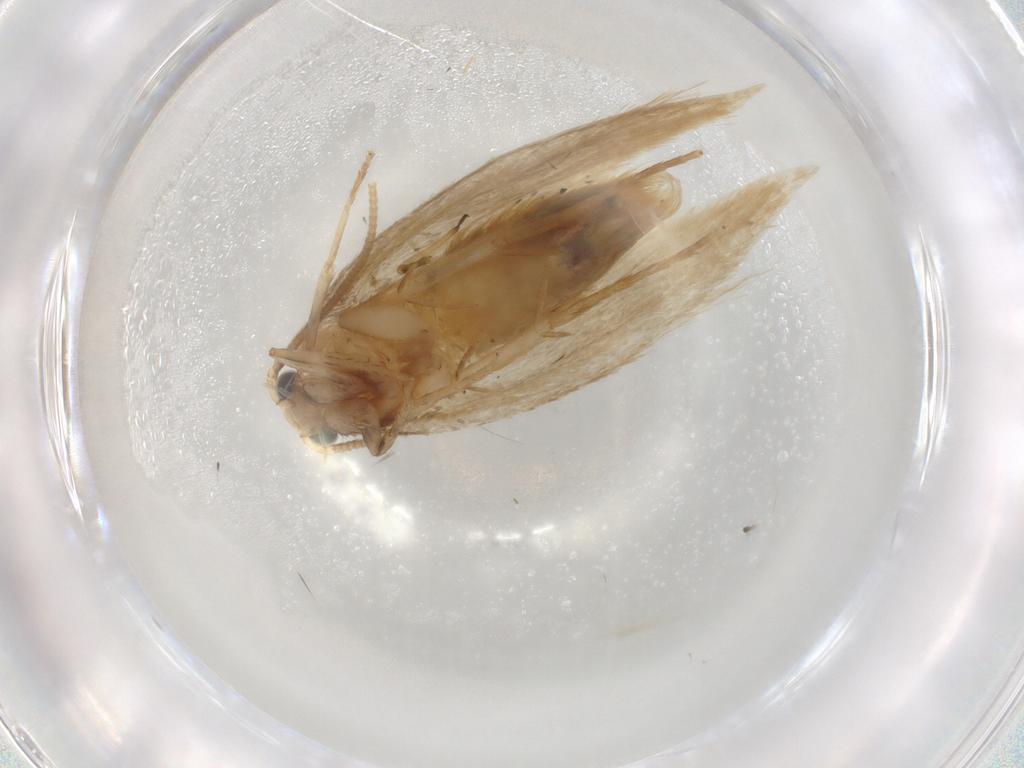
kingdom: Animalia
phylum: Arthropoda
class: Insecta
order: Lepidoptera
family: Nepticulidae
